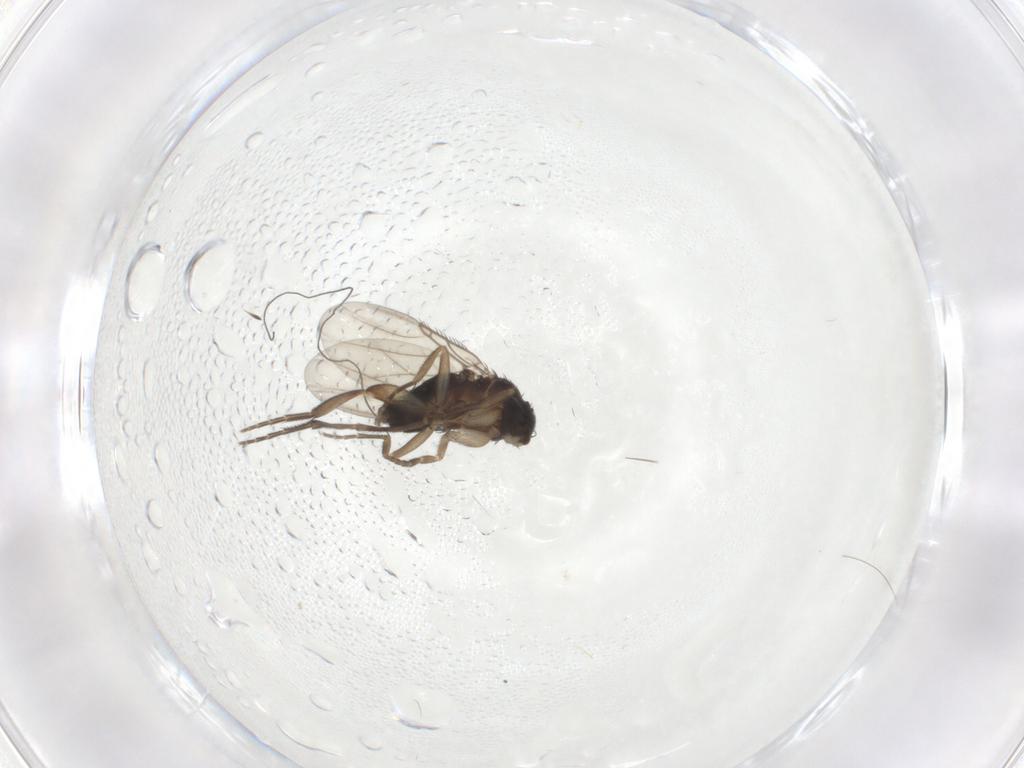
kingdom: Animalia
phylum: Arthropoda
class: Insecta
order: Diptera
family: Phoridae
